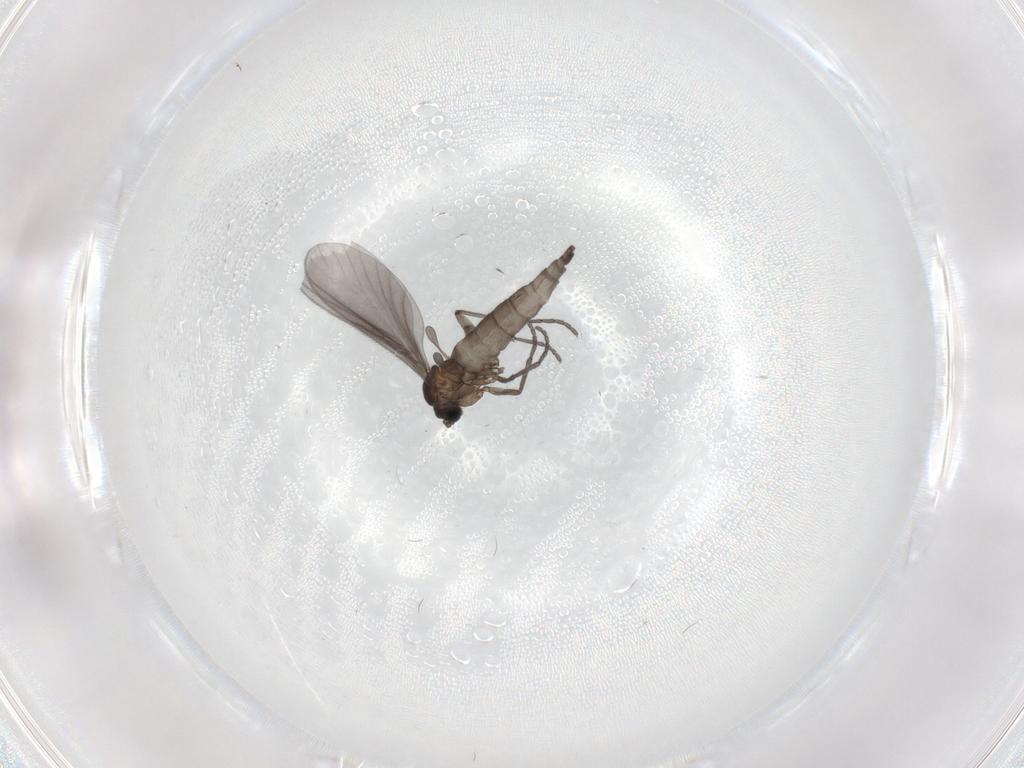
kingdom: Animalia
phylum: Arthropoda
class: Insecta
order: Diptera
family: Sciaridae
